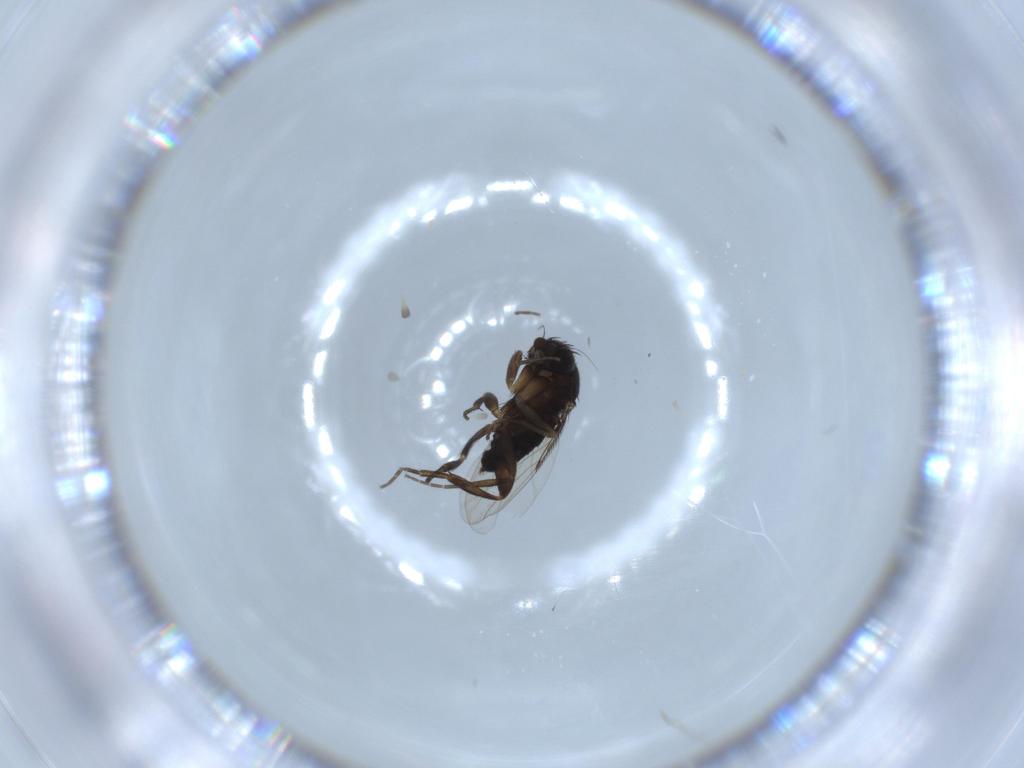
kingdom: Animalia
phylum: Arthropoda
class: Insecta
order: Diptera
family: Phoridae
